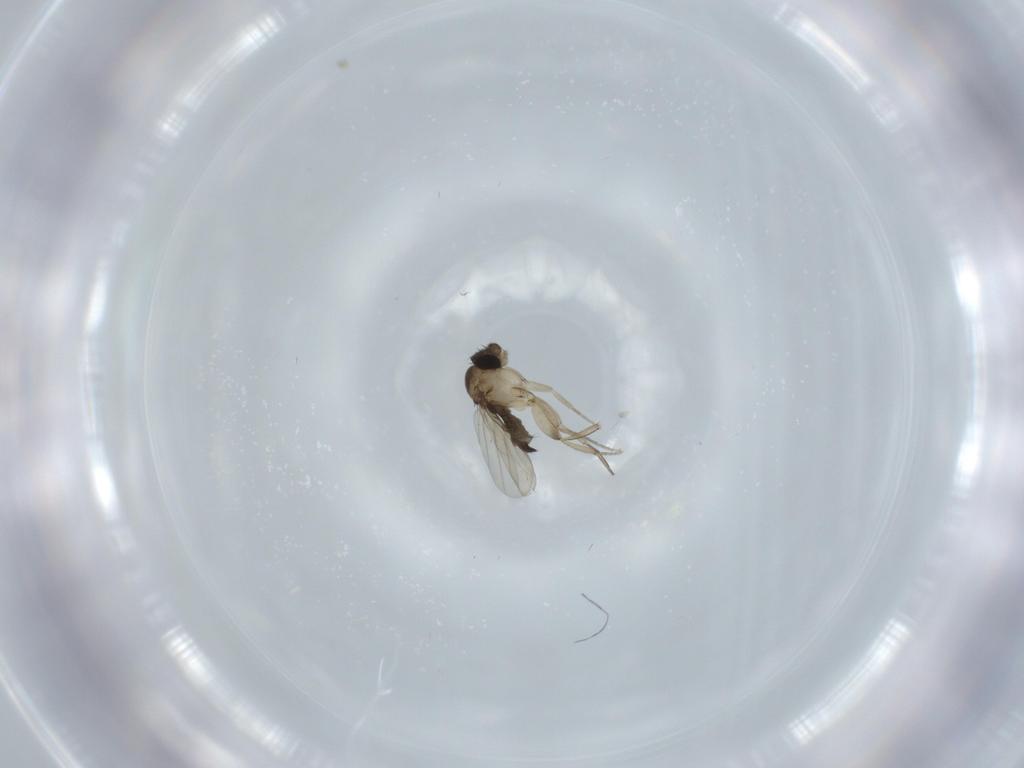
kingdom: Animalia
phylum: Arthropoda
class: Insecta
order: Diptera
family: Phoridae
